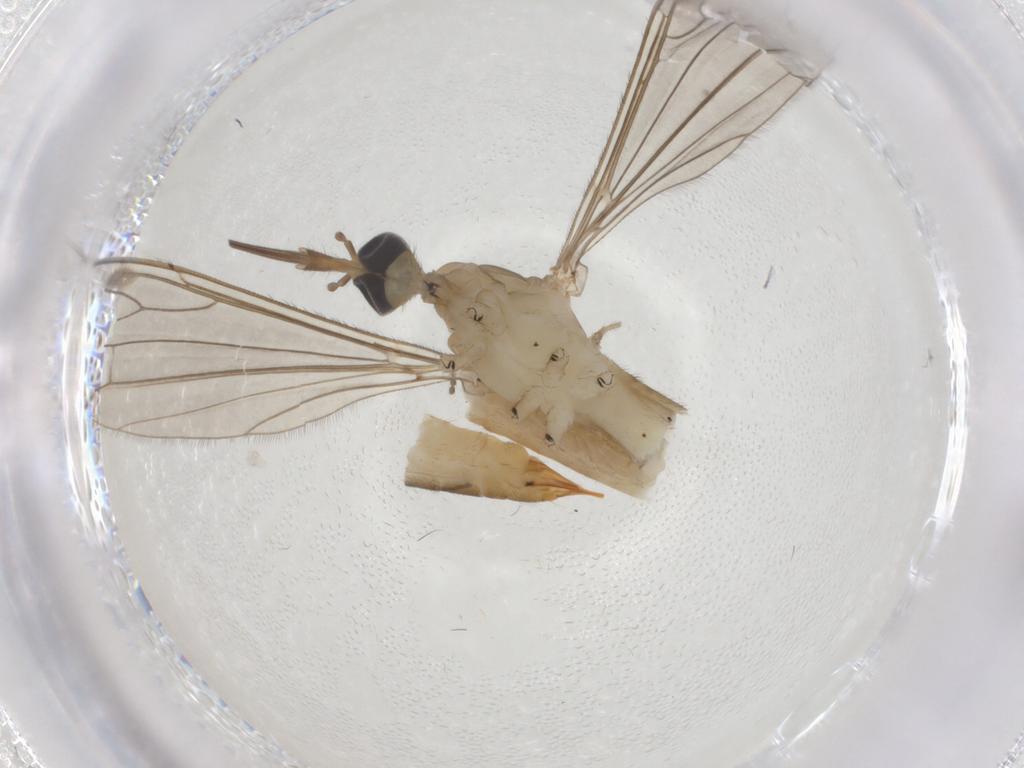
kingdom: Animalia
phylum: Arthropoda
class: Insecta
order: Diptera
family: Limoniidae
